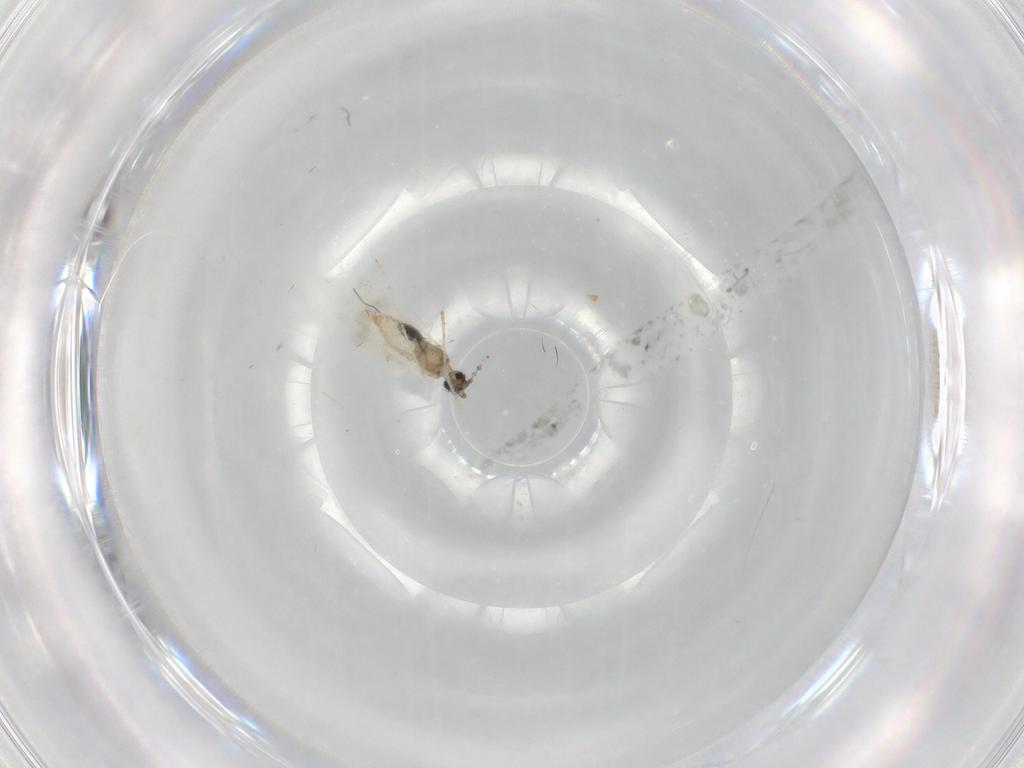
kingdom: Animalia
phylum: Arthropoda
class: Insecta
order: Diptera
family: Cecidomyiidae
